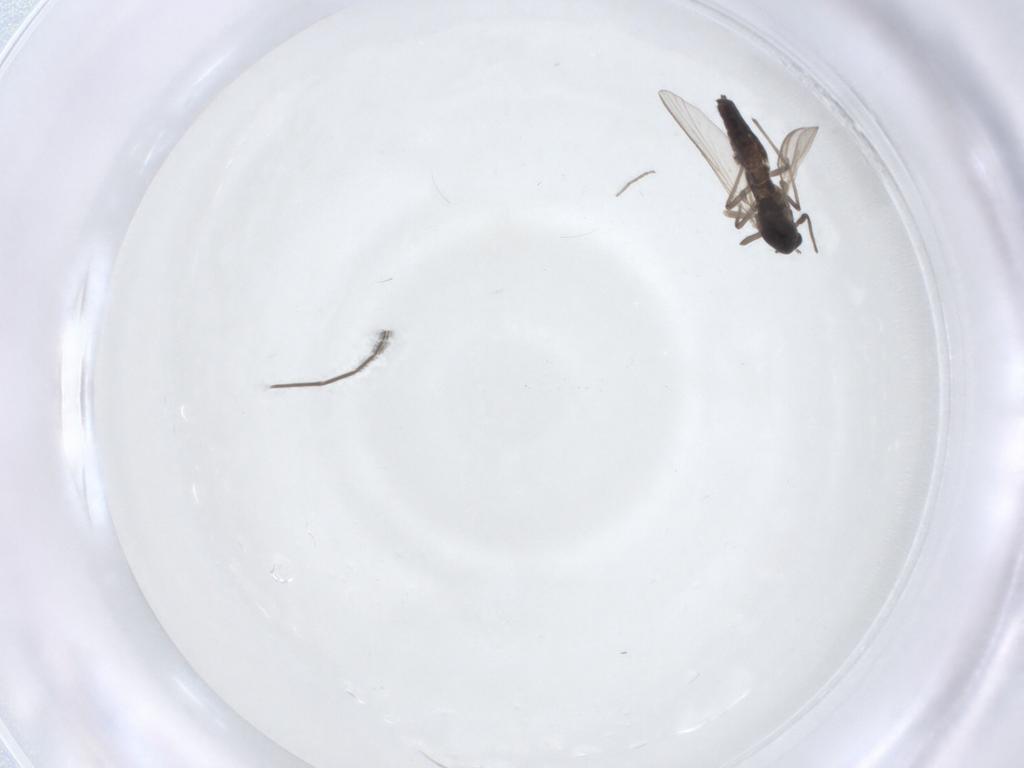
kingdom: Animalia
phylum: Arthropoda
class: Insecta
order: Diptera
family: Chironomidae
